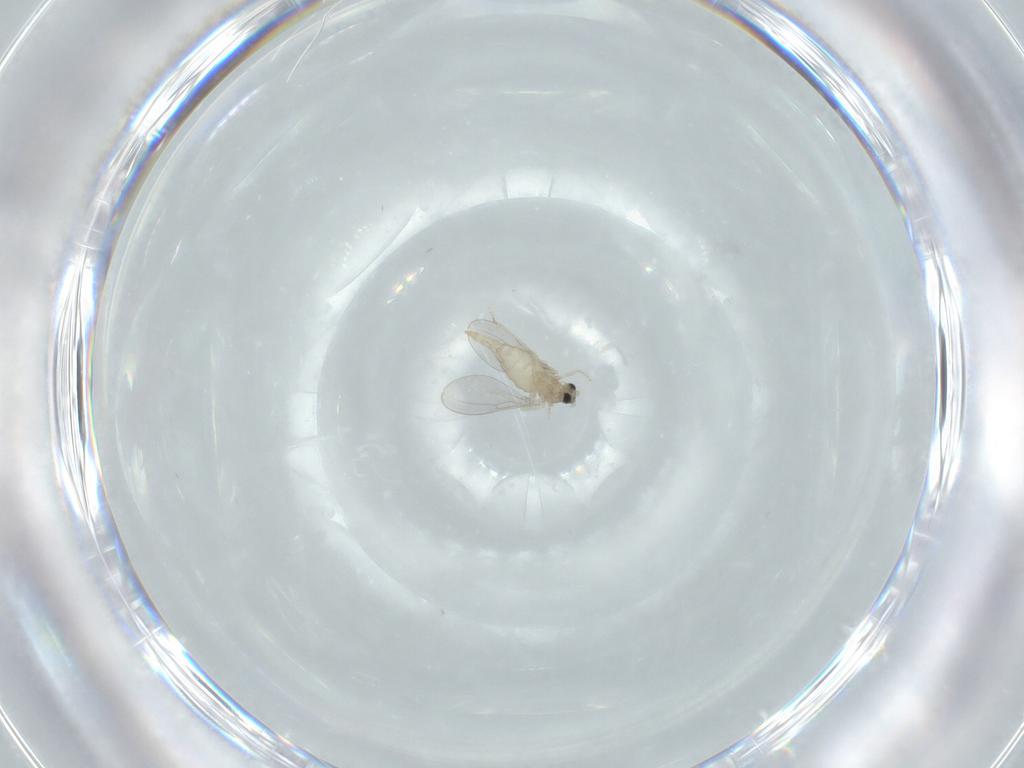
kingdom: Animalia
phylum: Arthropoda
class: Insecta
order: Diptera
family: Cecidomyiidae
